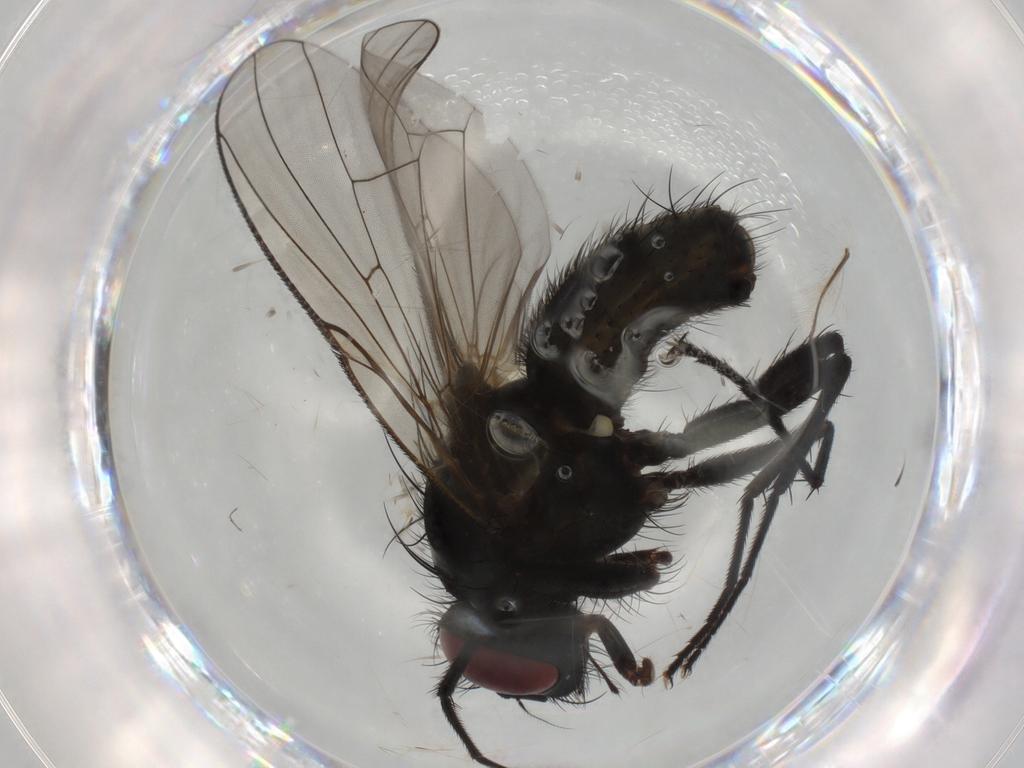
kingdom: Animalia
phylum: Arthropoda
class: Insecta
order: Diptera
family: Muscidae
